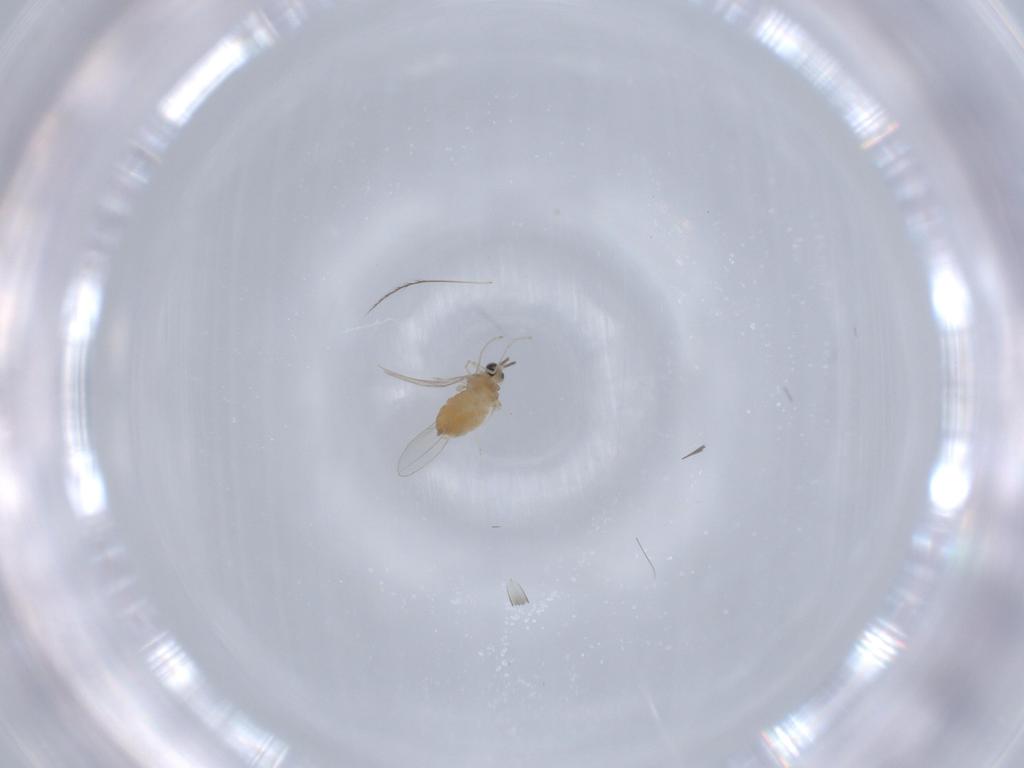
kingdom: Animalia
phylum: Arthropoda
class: Insecta
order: Diptera
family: Cecidomyiidae
